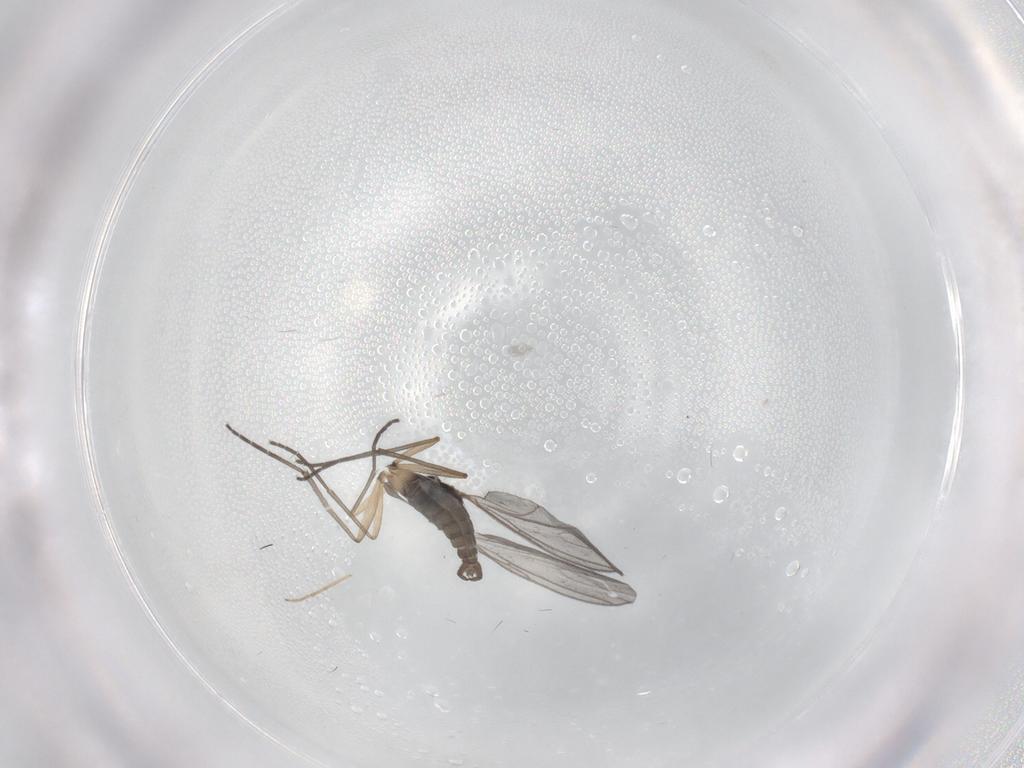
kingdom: Animalia
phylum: Arthropoda
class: Insecta
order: Diptera
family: Sciaridae
